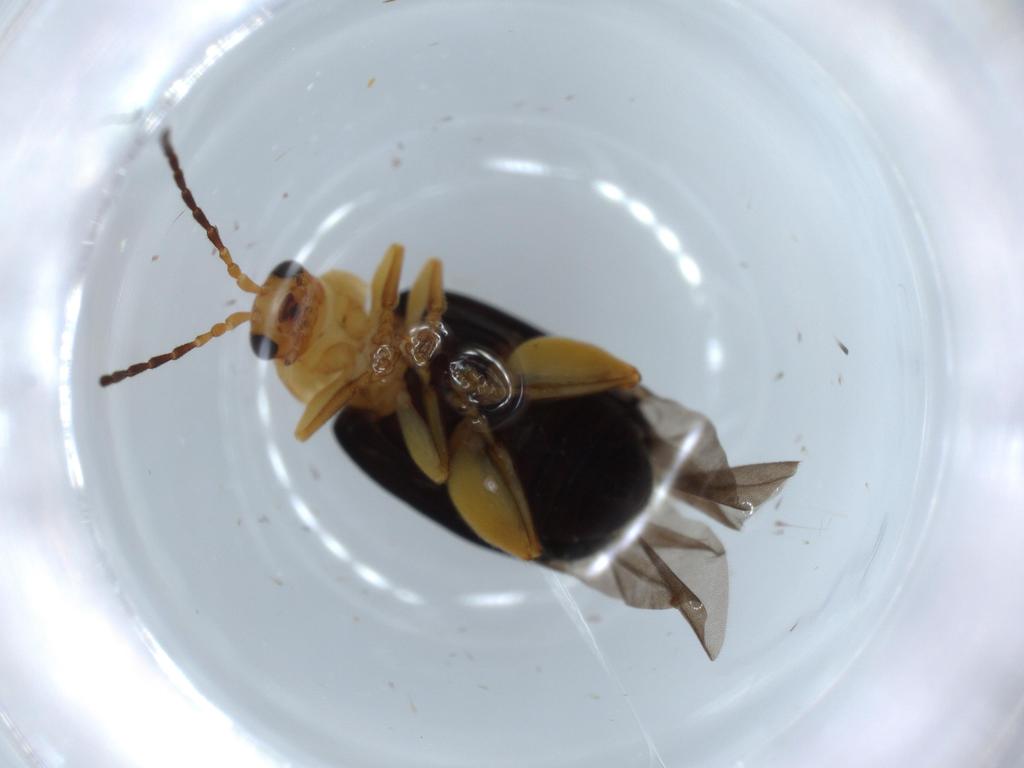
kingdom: Animalia
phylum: Arthropoda
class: Insecta
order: Coleoptera
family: Chrysomelidae
